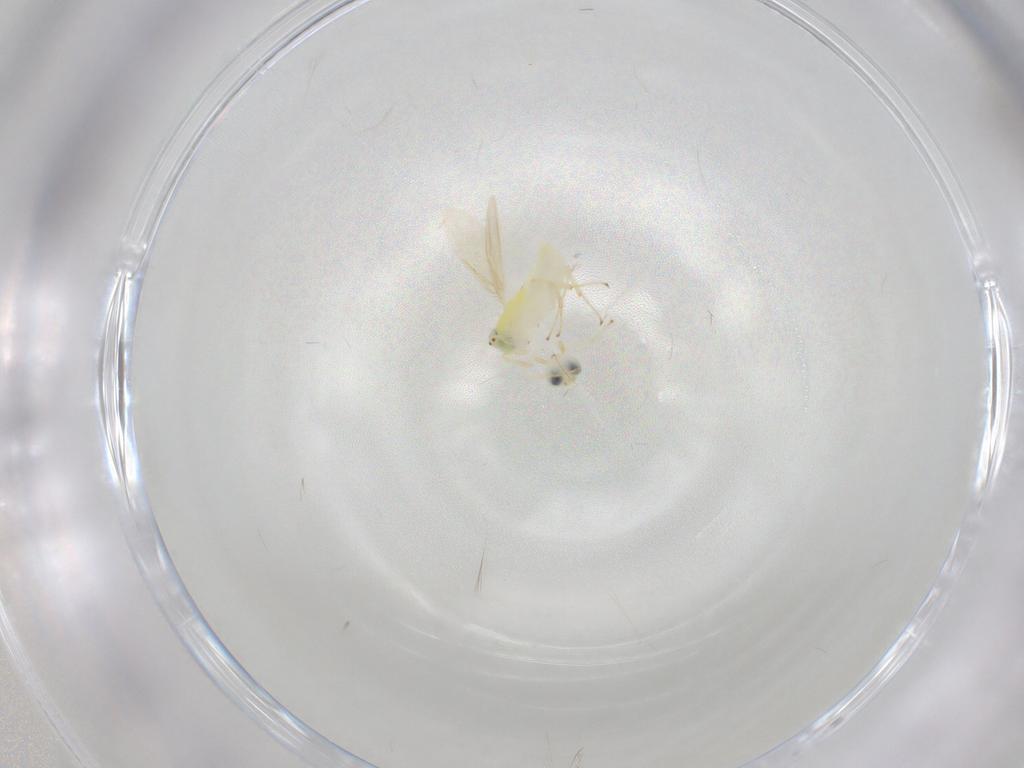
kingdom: Animalia
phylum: Arthropoda
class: Insecta
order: Hymenoptera
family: Aphelinidae
